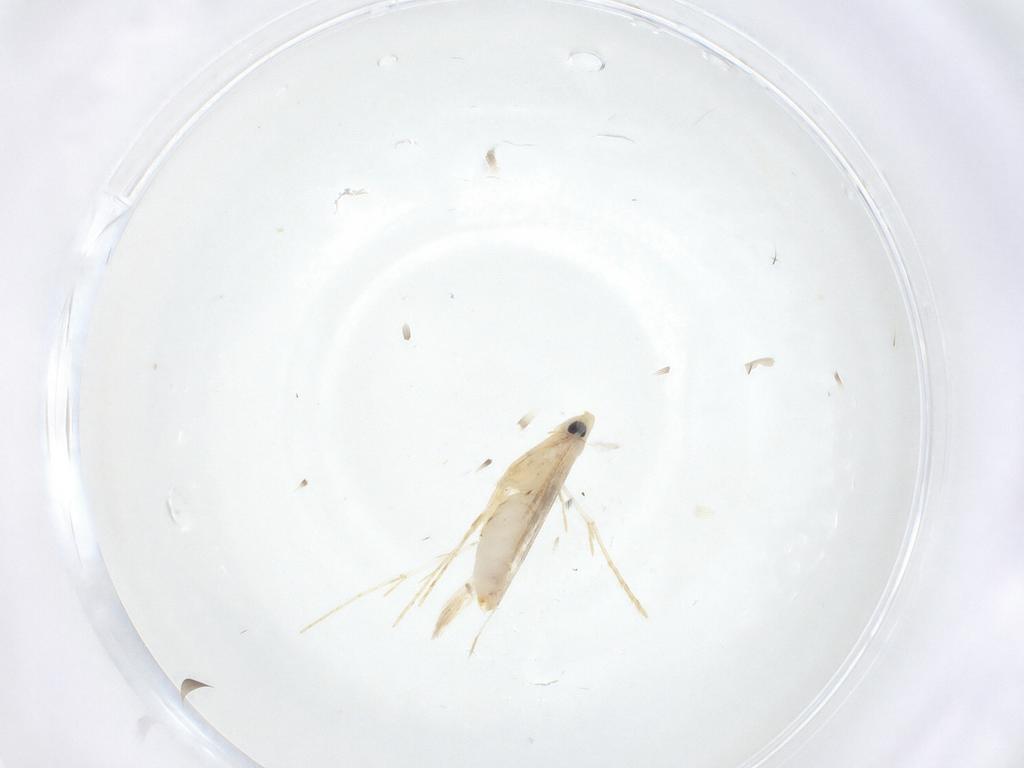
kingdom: Animalia
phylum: Arthropoda
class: Insecta
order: Lepidoptera
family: Tineidae
